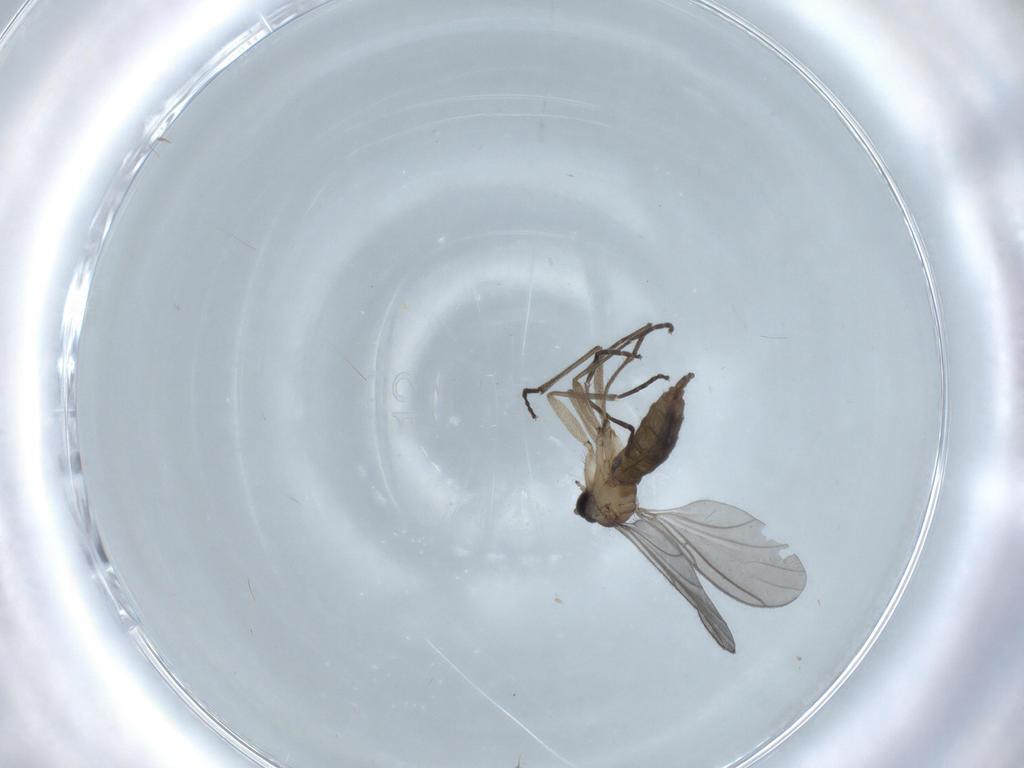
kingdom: Animalia
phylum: Arthropoda
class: Insecta
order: Diptera
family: Chironomidae
